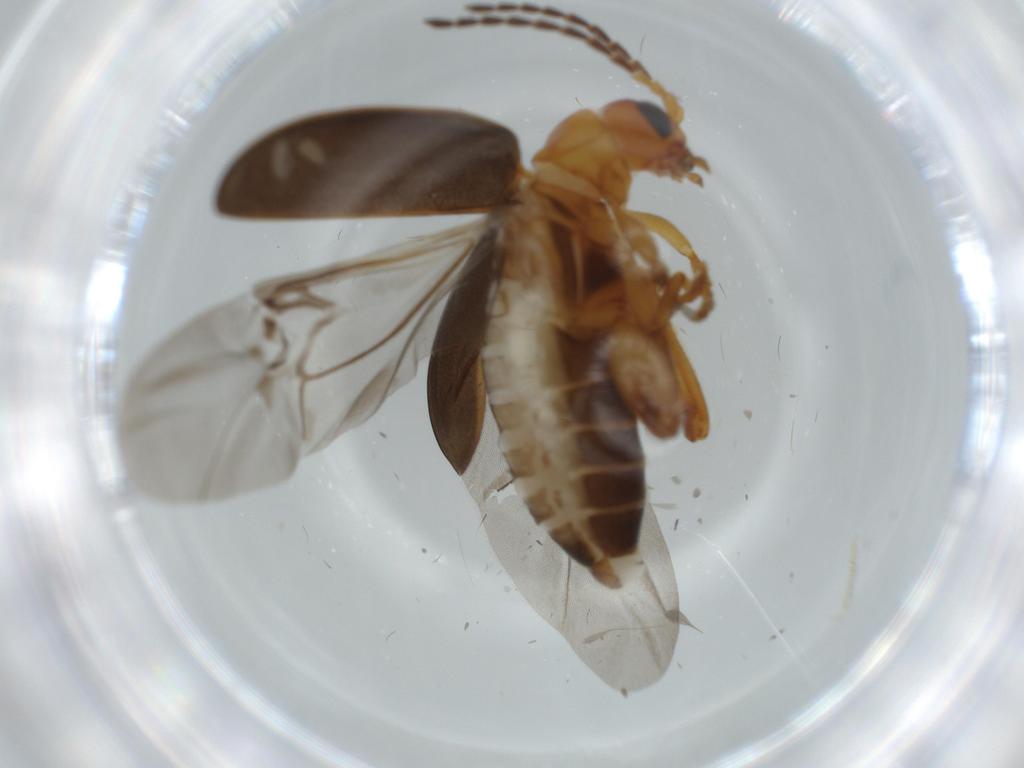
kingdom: Animalia
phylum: Arthropoda
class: Insecta
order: Coleoptera
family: Chrysomelidae
